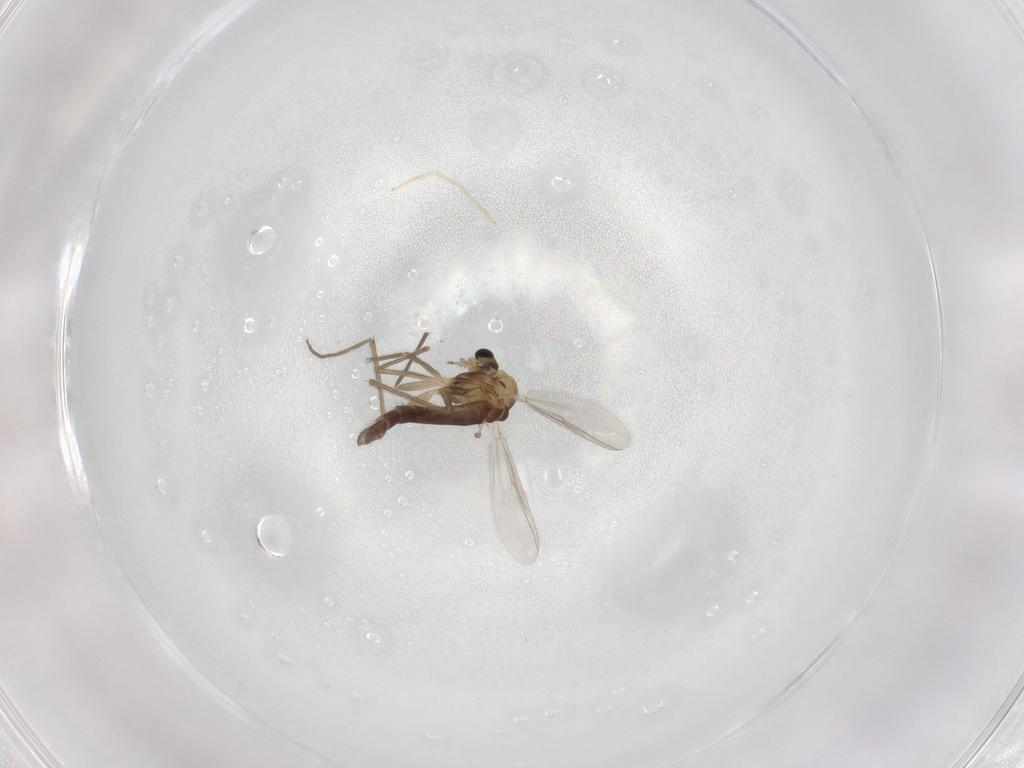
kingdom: Animalia
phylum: Arthropoda
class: Insecta
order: Diptera
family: Chironomidae
